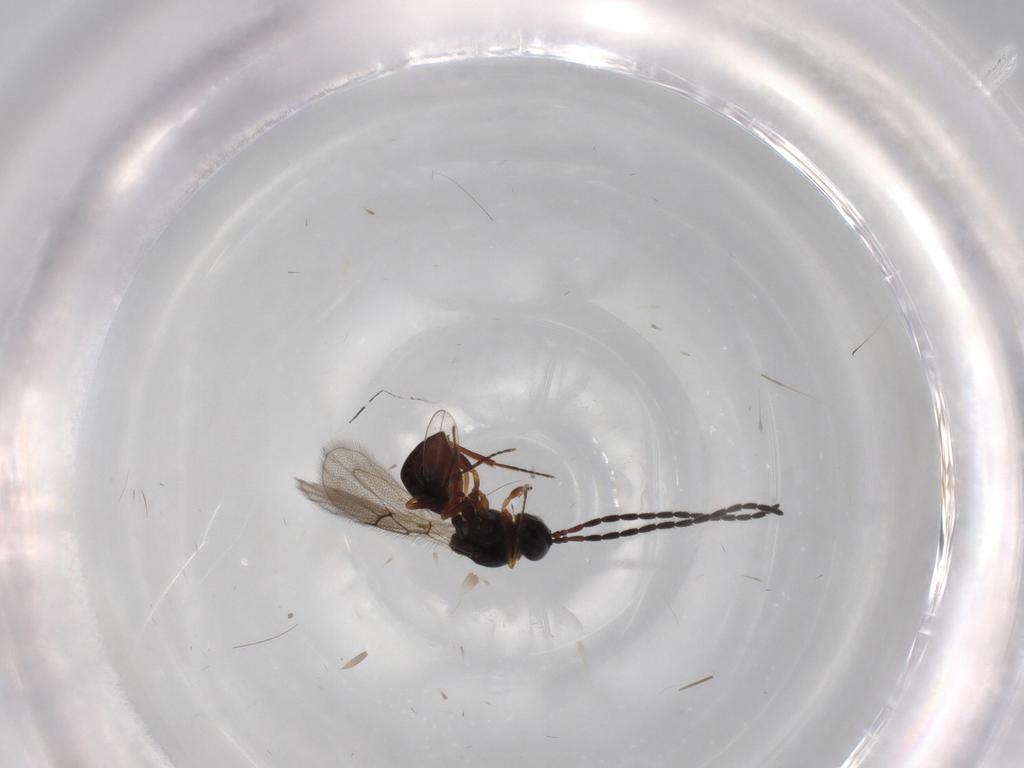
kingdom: Animalia
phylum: Arthropoda
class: Insecta
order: Hymenoptera
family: Figitidae
